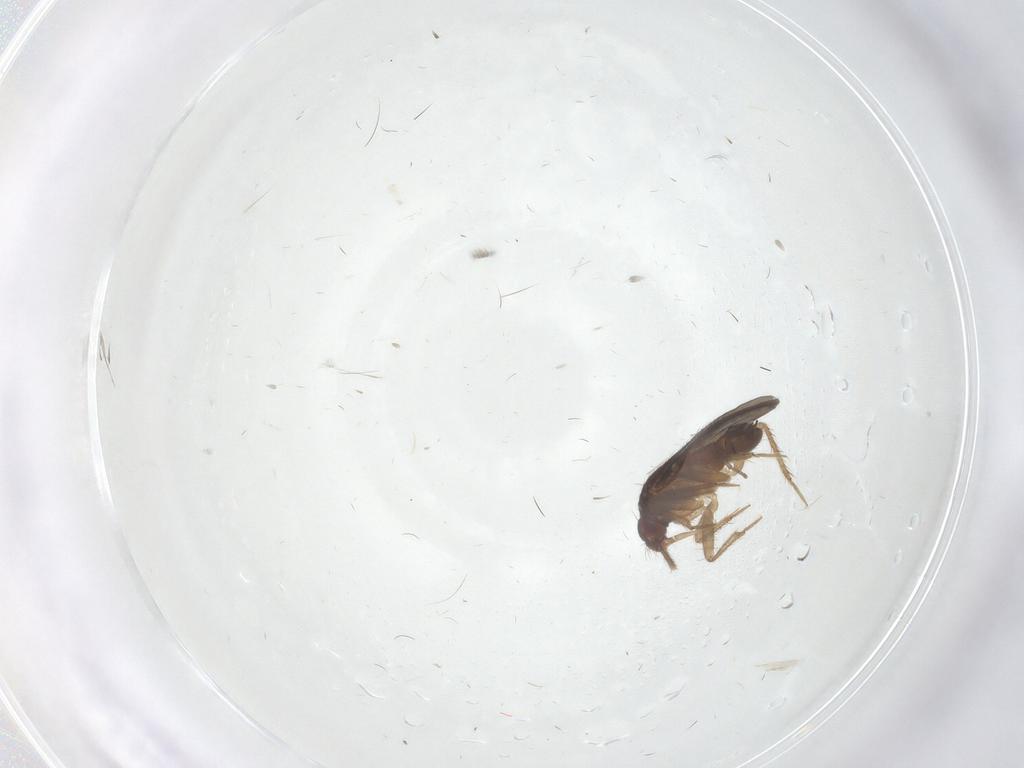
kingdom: Animalia
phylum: Arthropoda
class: Insecta
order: Hemiptera
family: Ceratocombidae
